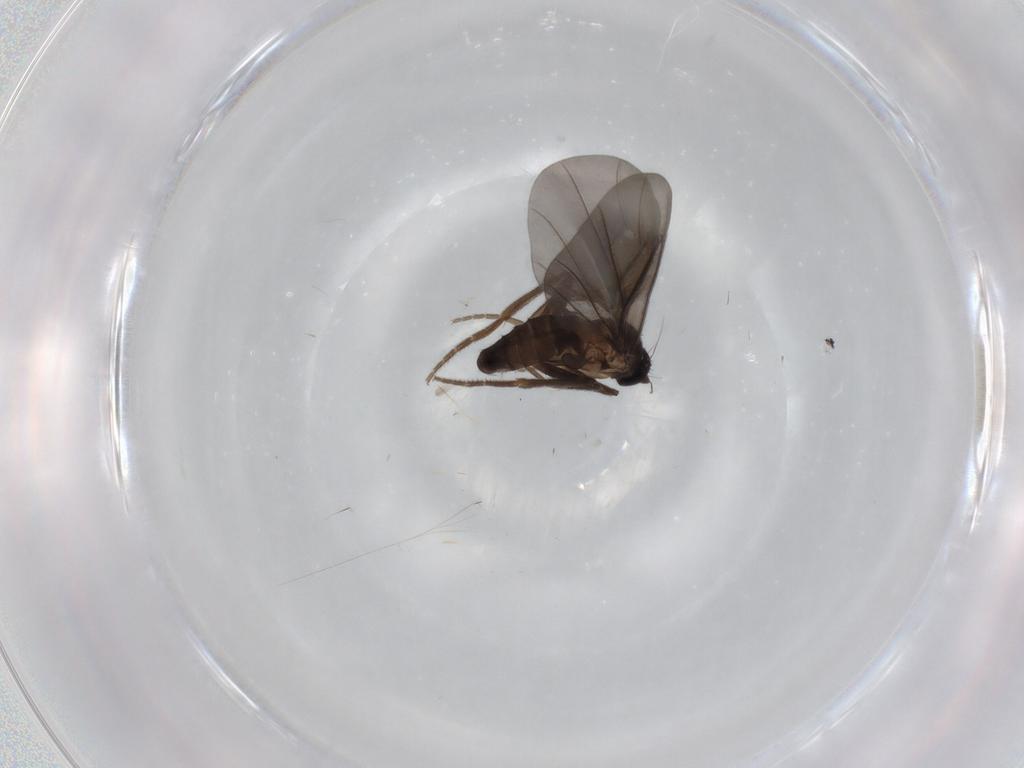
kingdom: Animalia
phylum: Arthropoda
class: Insecta
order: Diptera
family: Phoridae
